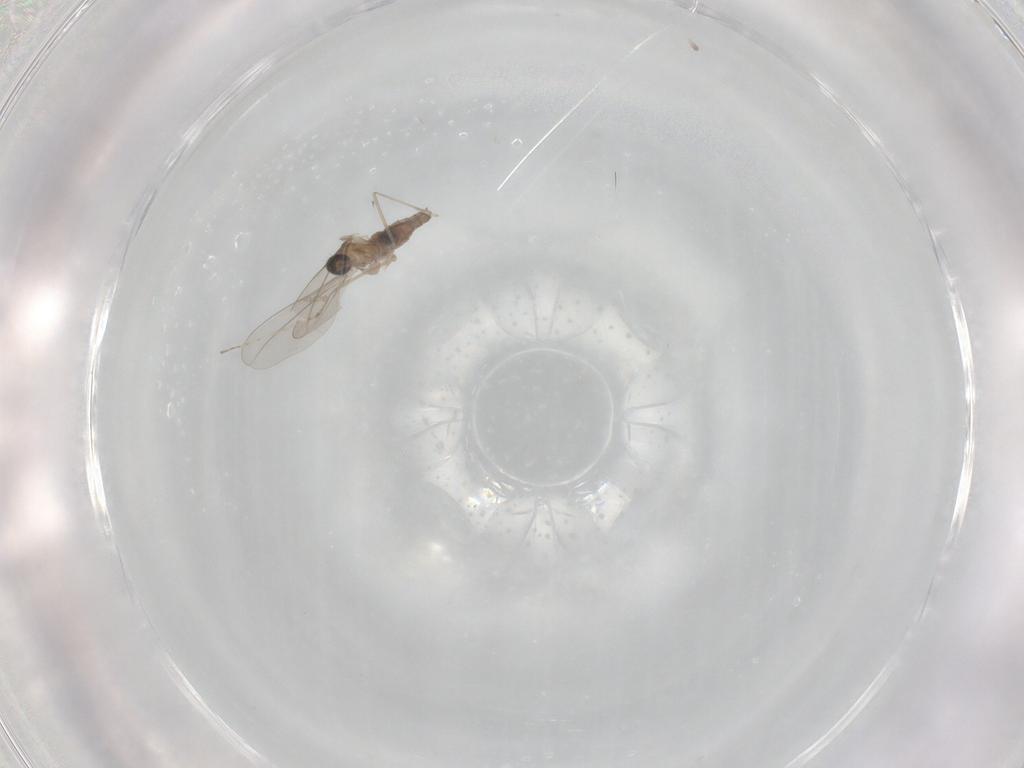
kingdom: Animalia
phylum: Arthropoda
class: Insecta
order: Diptera
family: Cecidomyiidae
